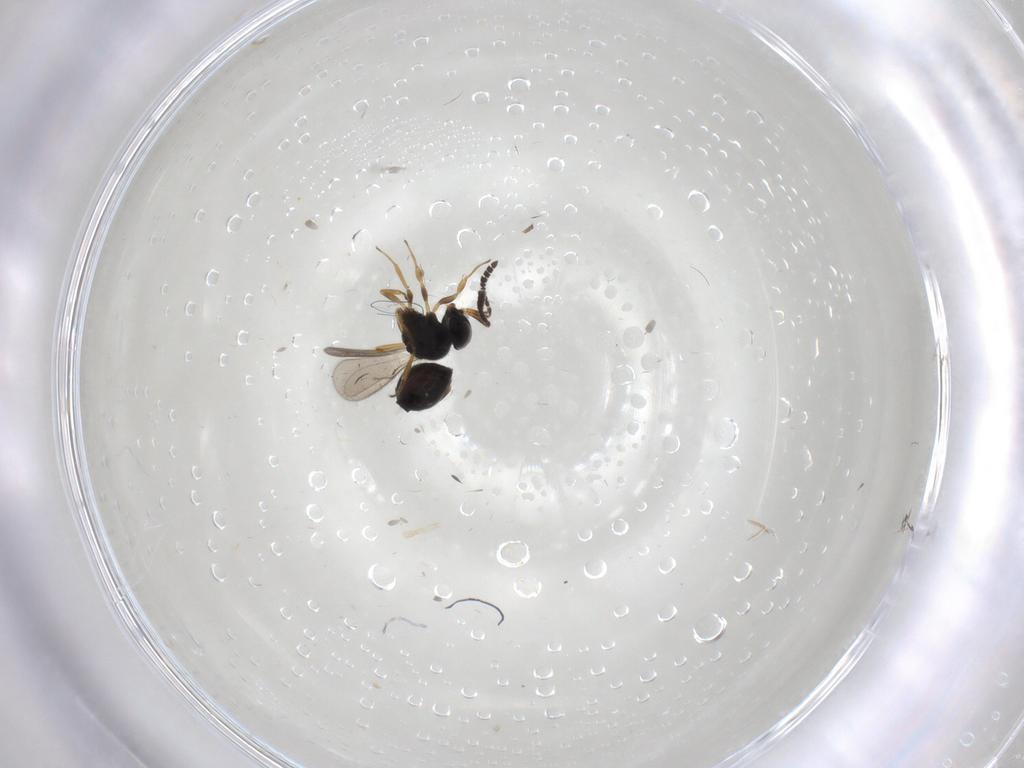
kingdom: Animalia
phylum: Arthropoda
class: Insecta
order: Hymenoptera
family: Scelionidae
